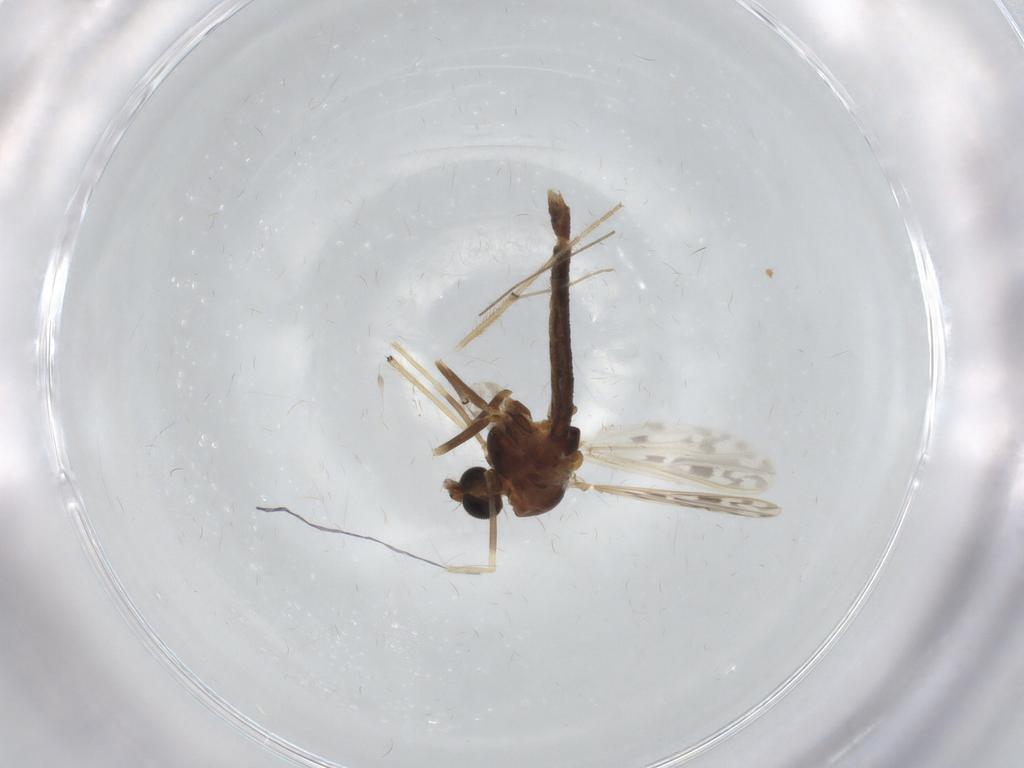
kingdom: Animalia
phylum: Arthropoda
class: Insecta
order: Diptera
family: Chironomidae
